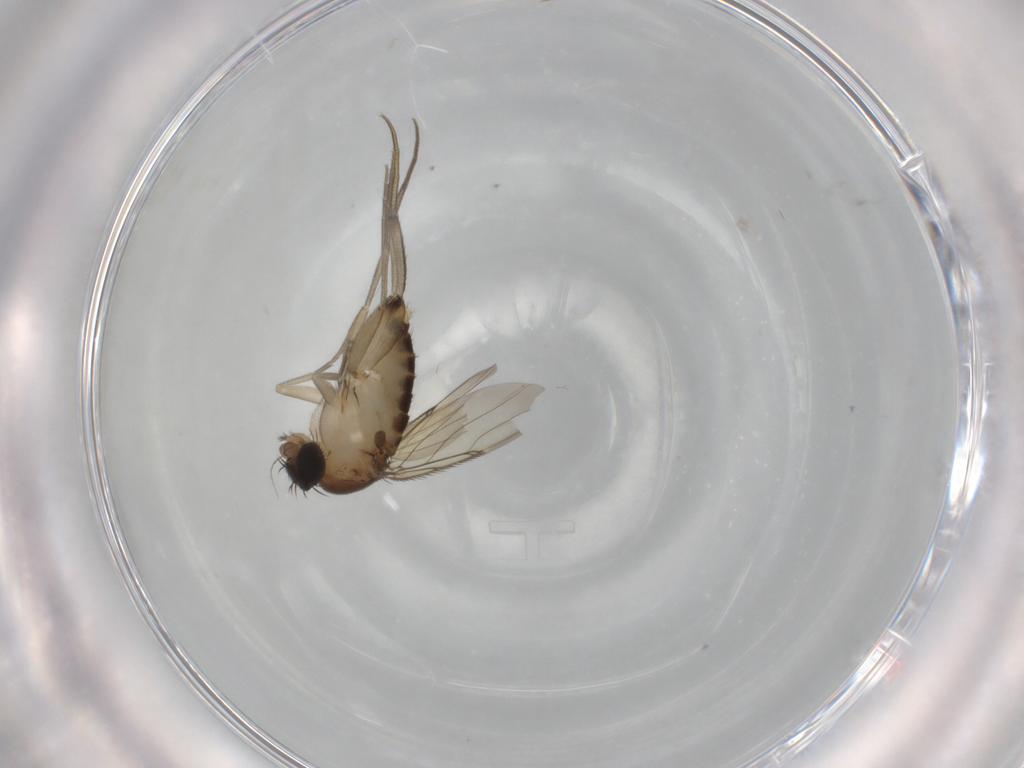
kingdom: Animalia
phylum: Arthropoda
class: Insecta
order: Diptera
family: Phoridae
